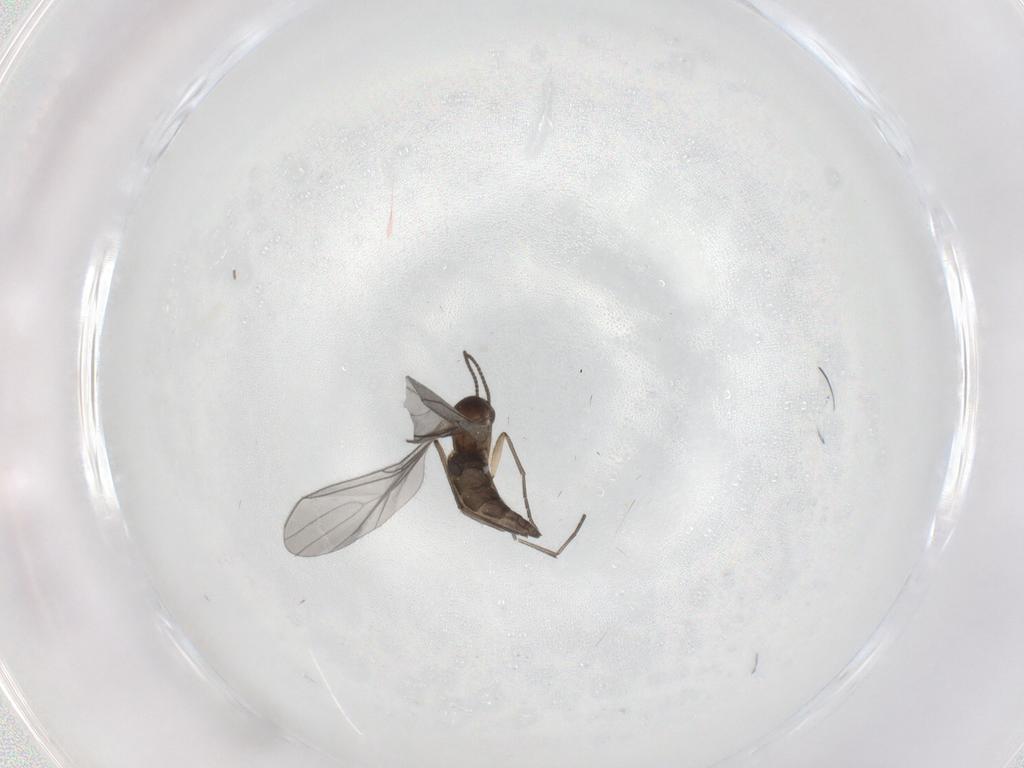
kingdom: Animalia
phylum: Arthropoda
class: Insecta
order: Diptera
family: Sciaridae
